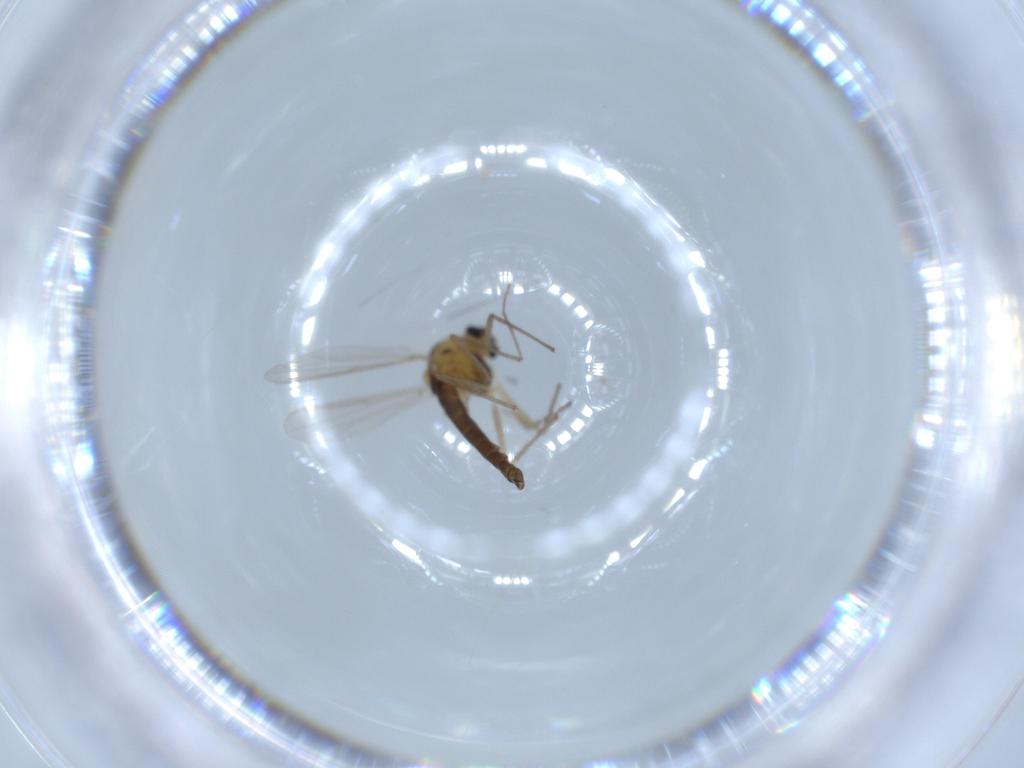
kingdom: Animalia
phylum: Arthropoda
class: Insecta
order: Diptera
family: Chironomidae
